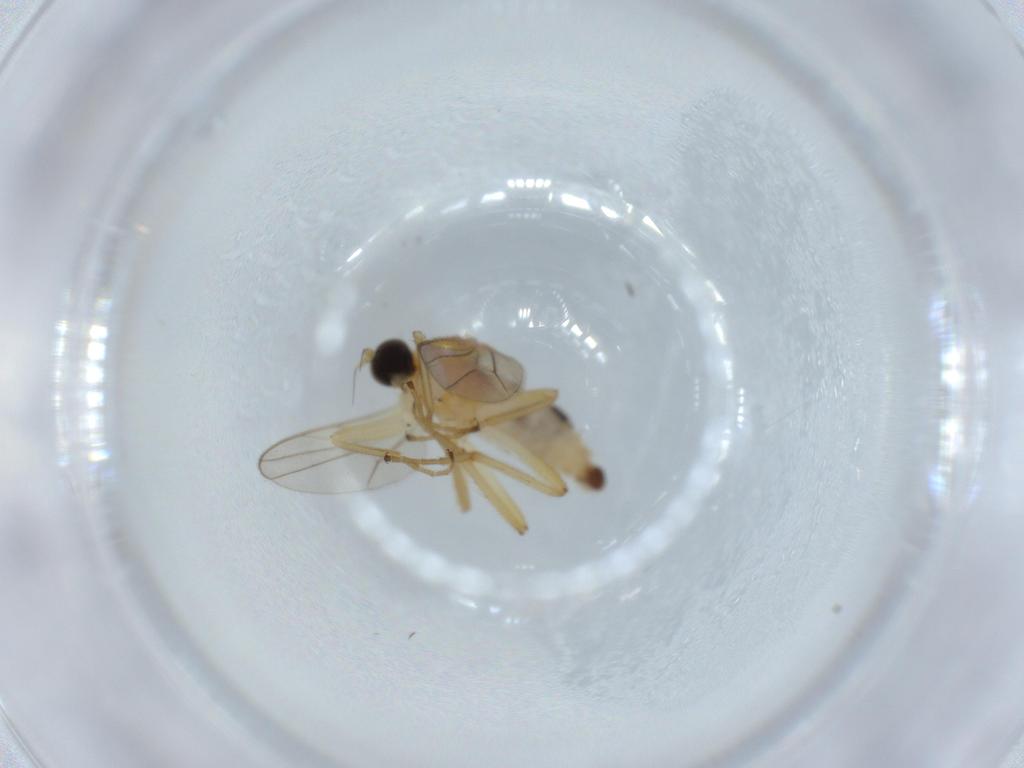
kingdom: Animalia
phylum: Arthropoda
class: Insecta
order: Diptera
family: Hybotidae
